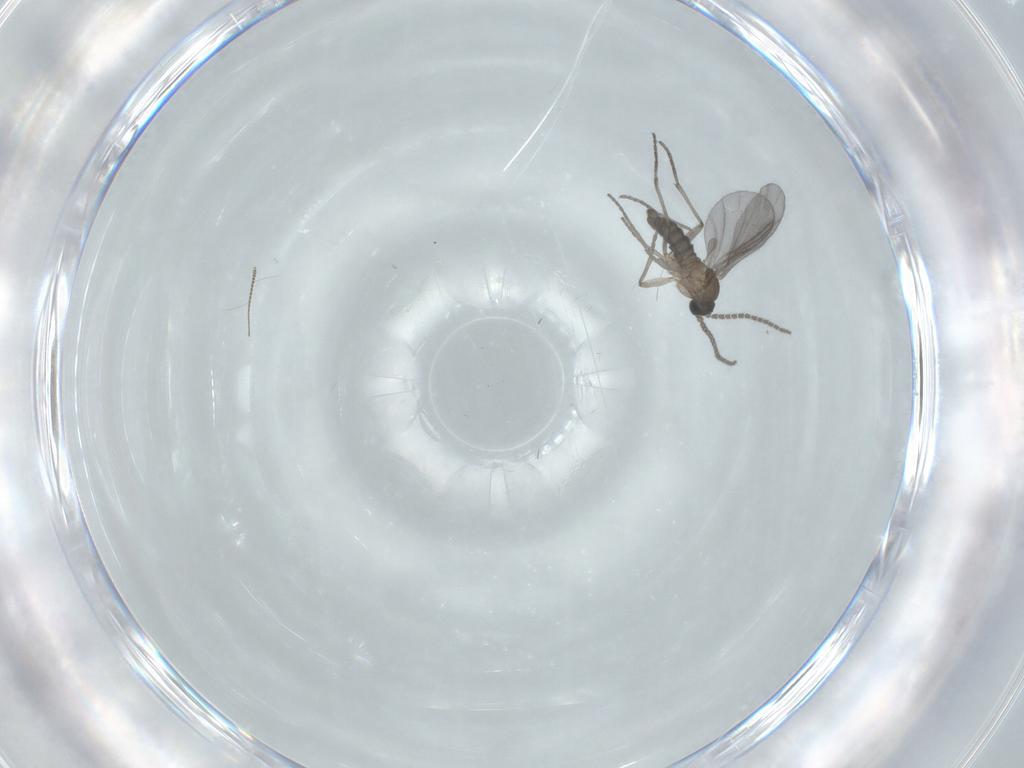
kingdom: Animalia
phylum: Arthropoda
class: Insecta
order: Diptera
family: Chironomidae
